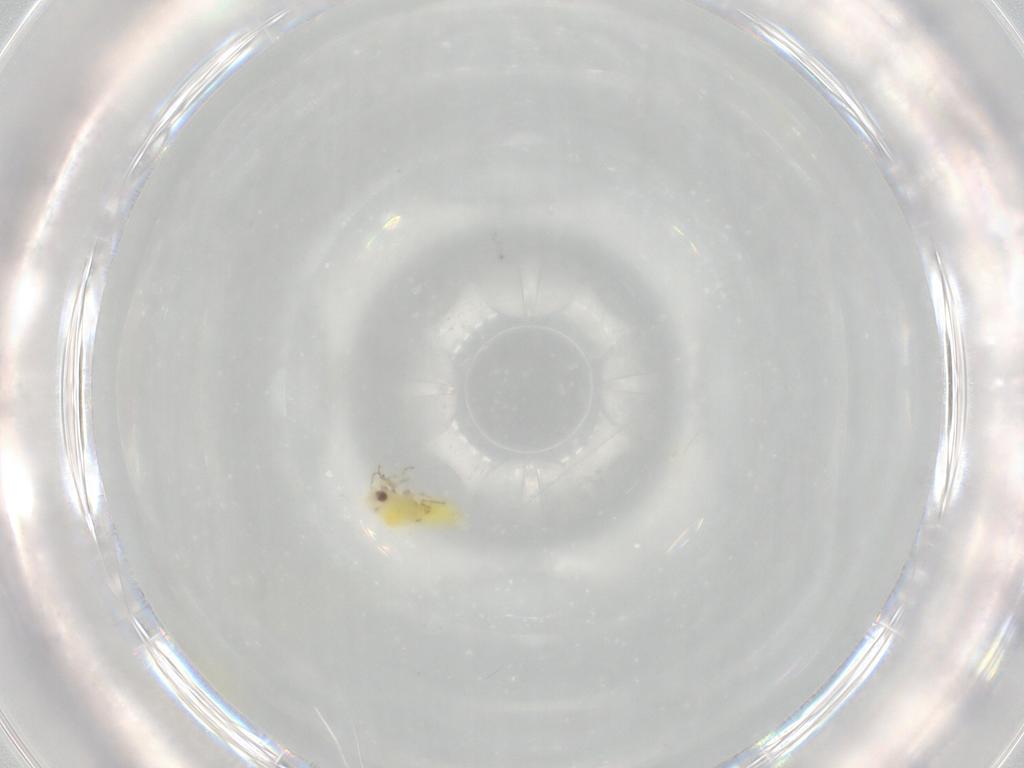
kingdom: Animalia
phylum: Arthropoda
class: Insecta
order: Hemiptera
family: Aleyrodidae
